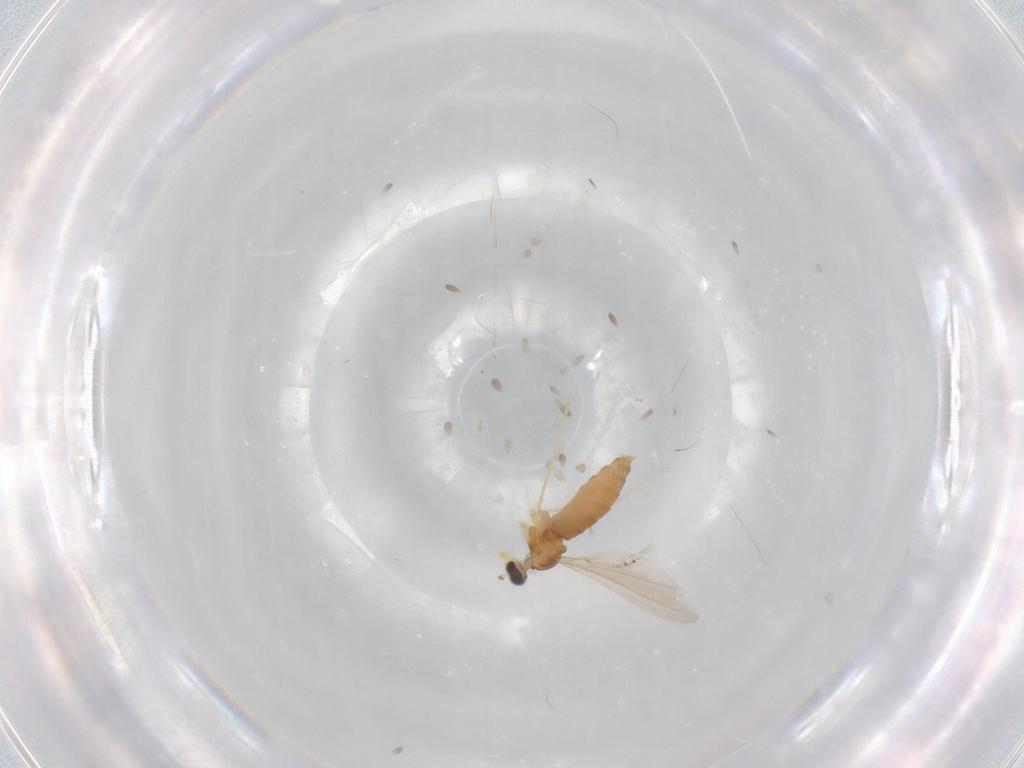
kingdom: Animalia
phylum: Arthropoda
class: Insecta
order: Diptera
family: Cecidomyiidae
